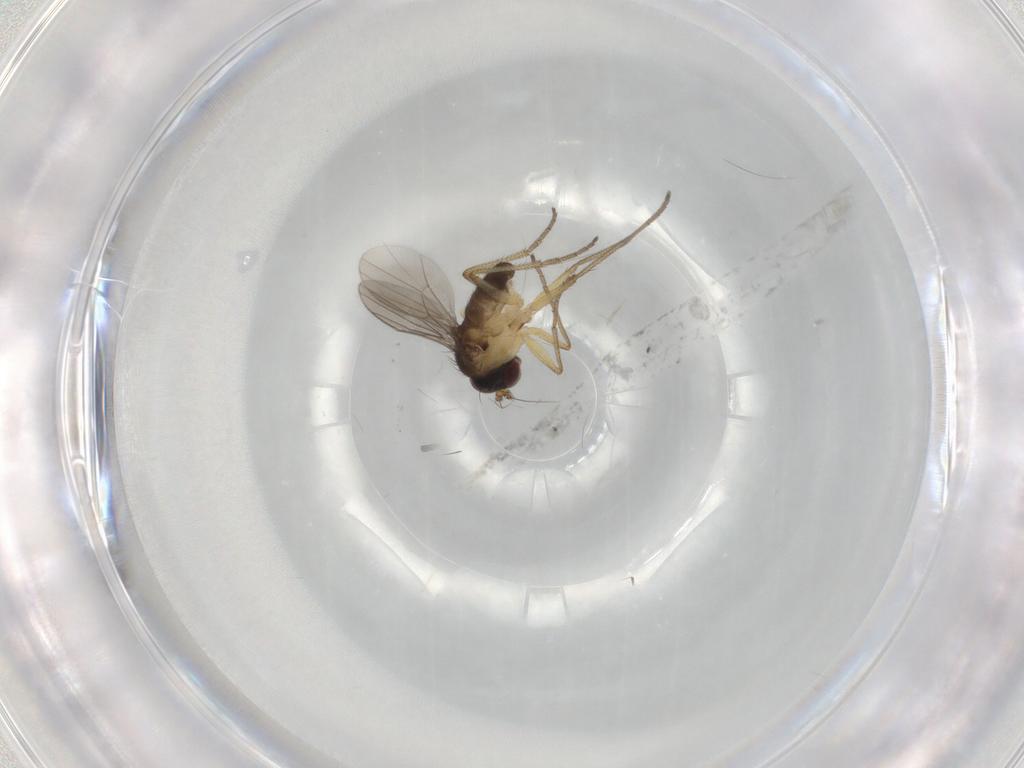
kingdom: Animalia
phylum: Arthropoda
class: Insecta
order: Diptera
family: Dolichopodidae
